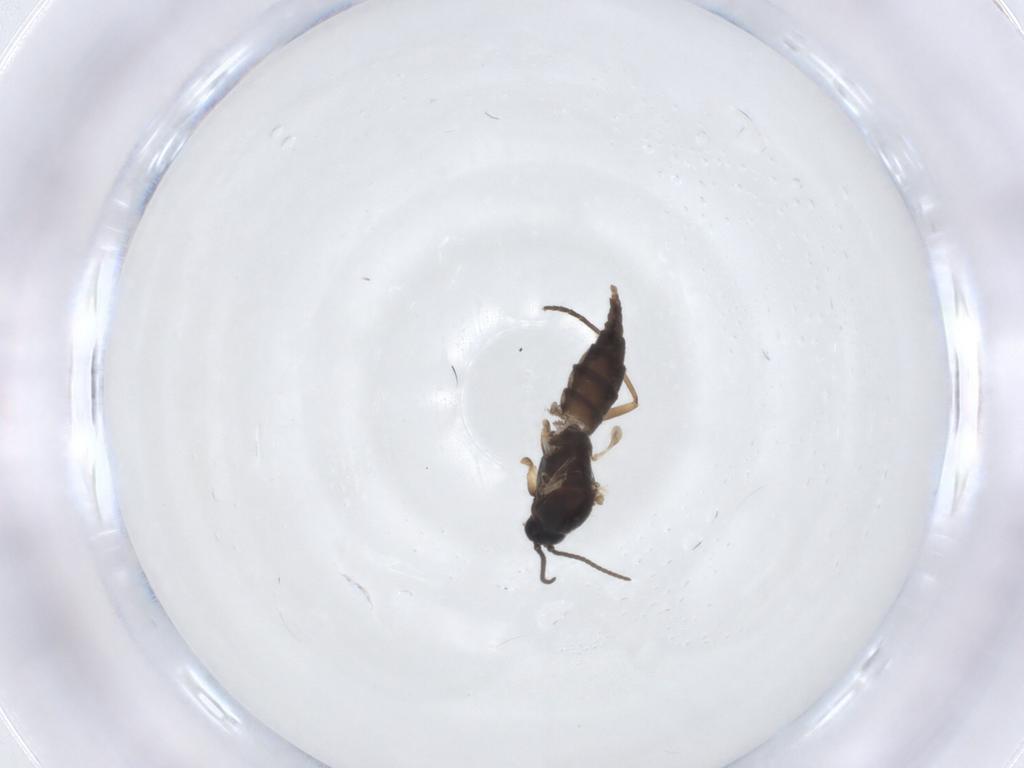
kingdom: Animalia
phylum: Arthropoda
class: Insecta
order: Diptera
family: Sciaridae
